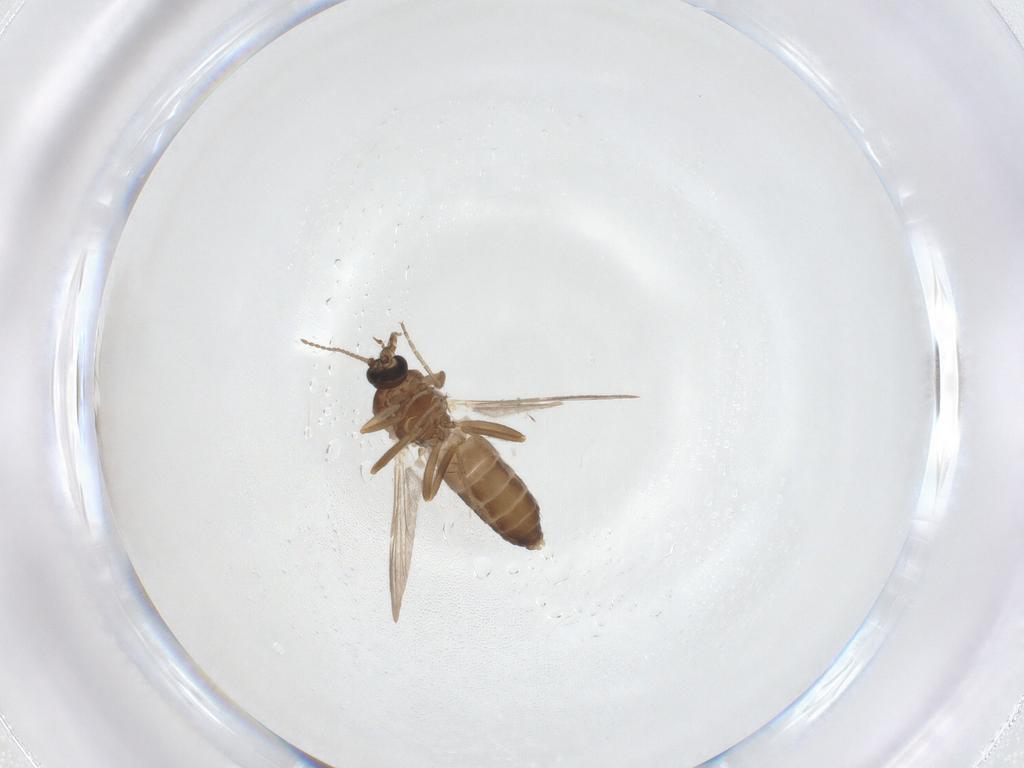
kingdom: Animalia
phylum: Arthropoda
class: Insecta
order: Diptera
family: Ceratopogonidae
